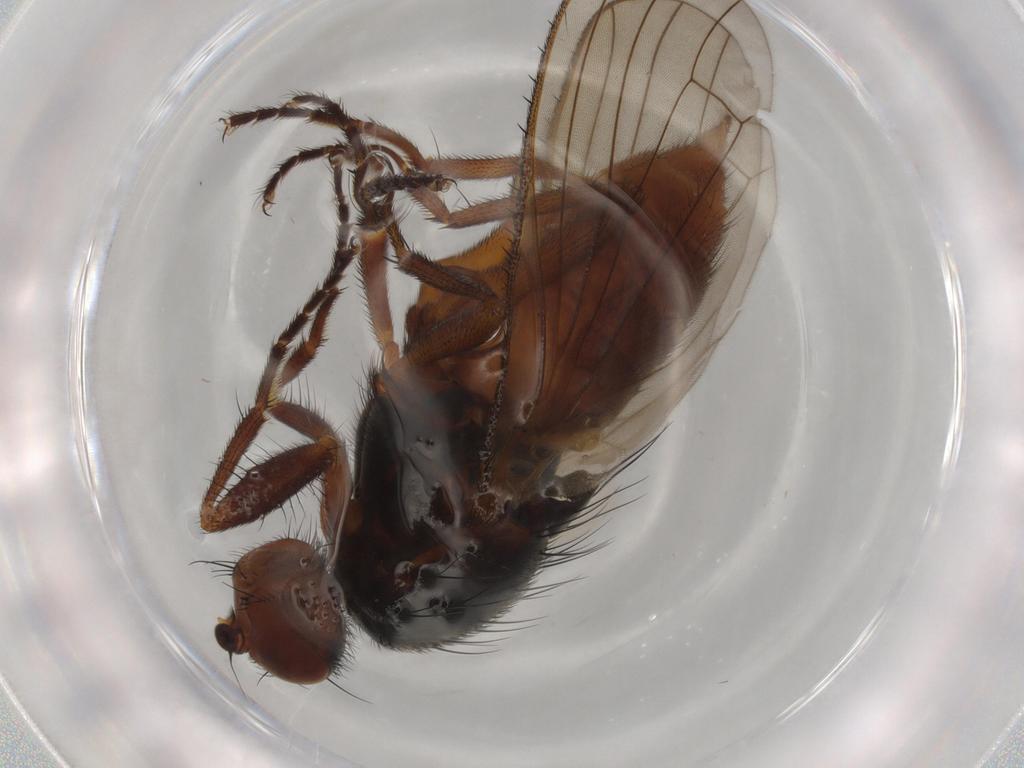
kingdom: Animalia
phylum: Arthropoda
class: Insecta
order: Diptera
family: Heleomyzidae
